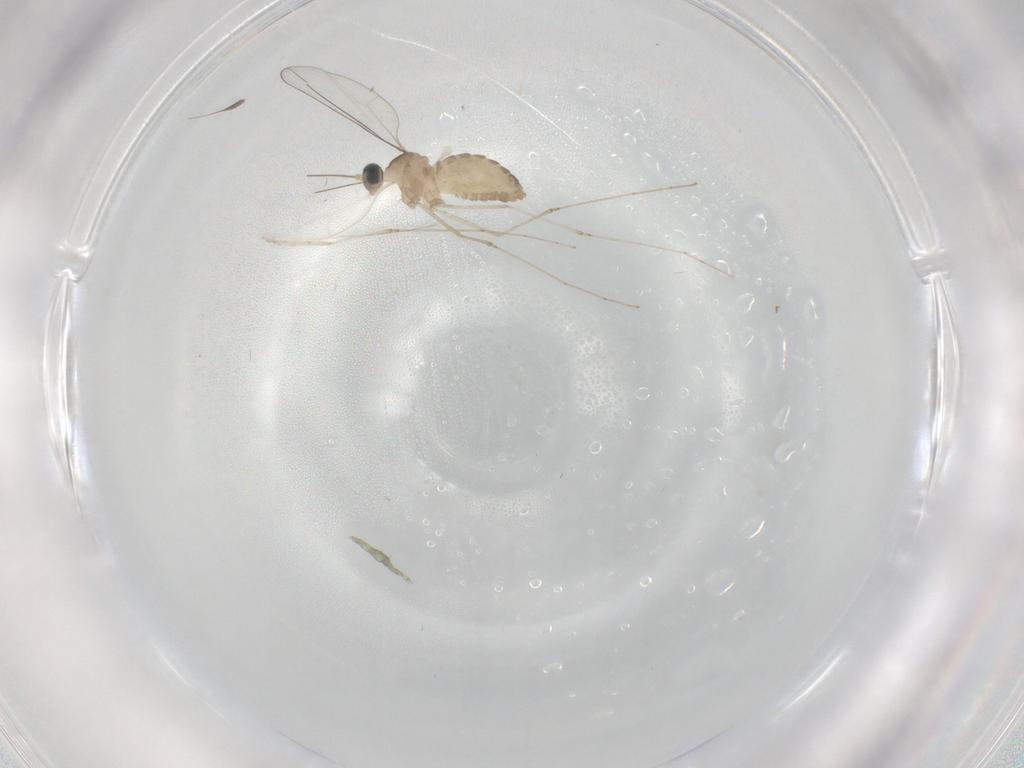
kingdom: Animalia
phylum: Arthropoda
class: Insecta
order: Diptera
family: Cecidomyiidae
